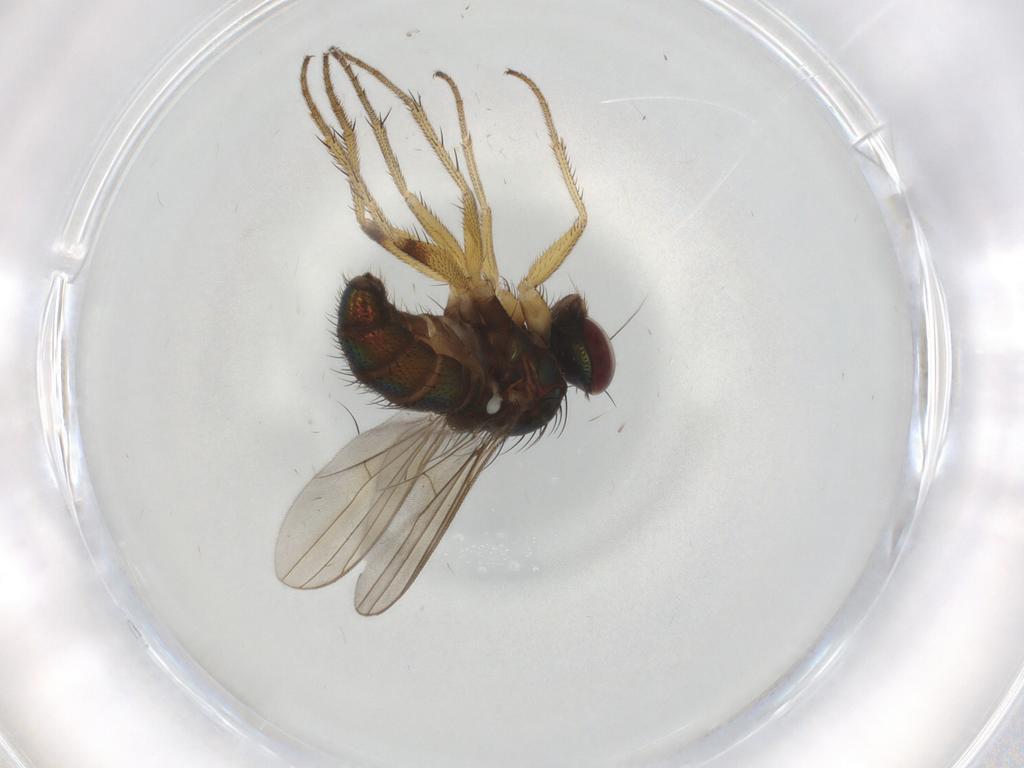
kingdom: Animalia
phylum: Arthropoda
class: Insecta
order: Diptera
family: Dolichopodidae
